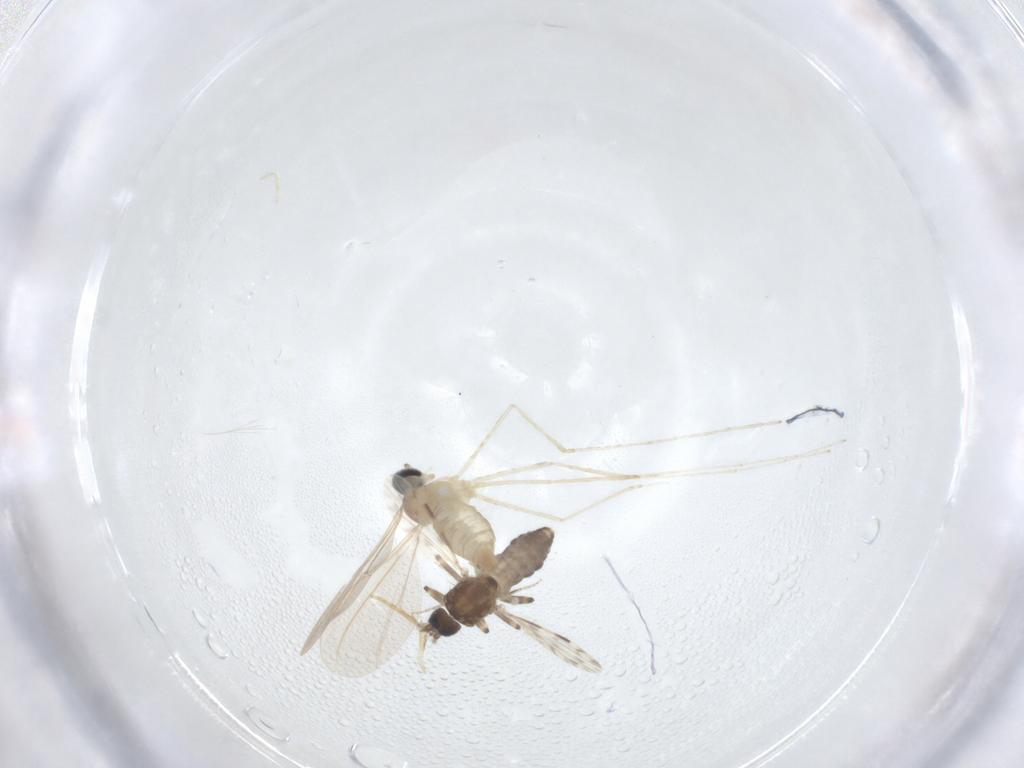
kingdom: Animalia
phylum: Arthropoda
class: Insecta
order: Diptera
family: Cecidomyiidae
